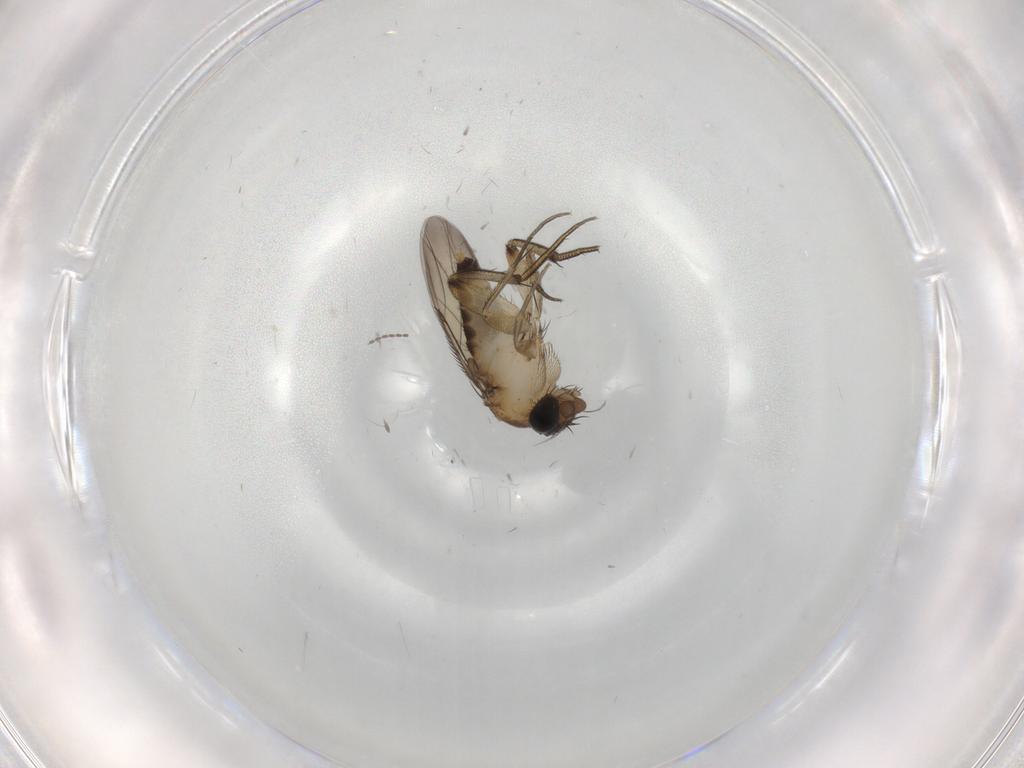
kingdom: Animalia
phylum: Arthropoda
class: Insecta
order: Diptera
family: Phoridae
